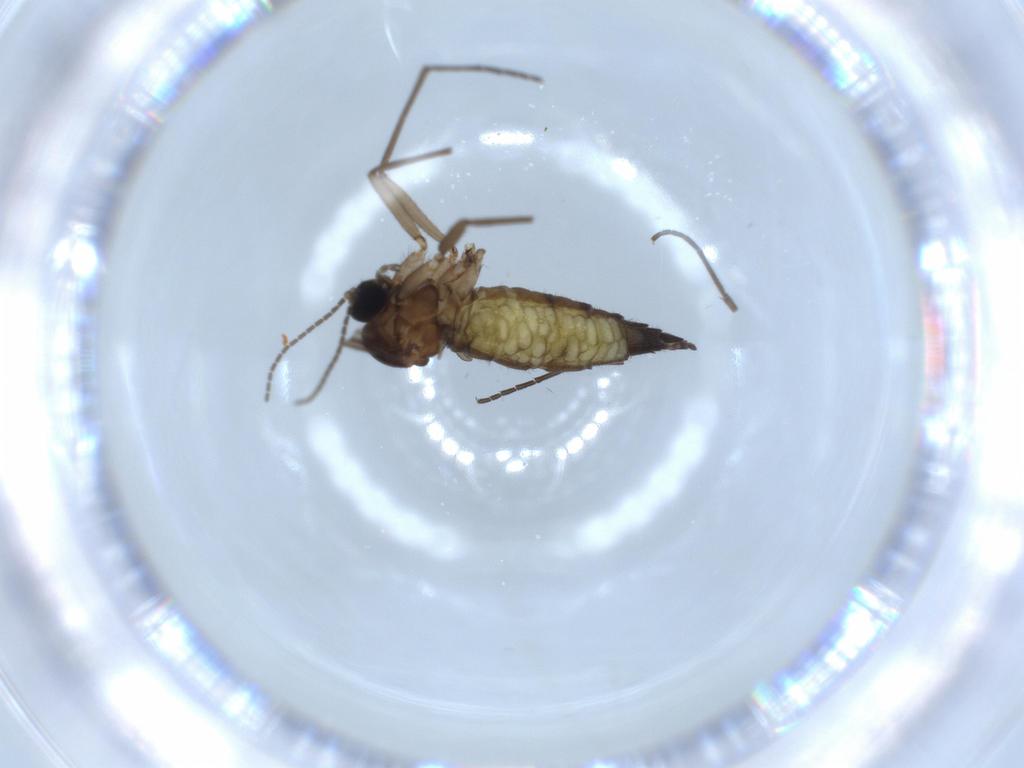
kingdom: Animalia
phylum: Arthropoda
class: Insecta
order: Diptera
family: Sciaridae
